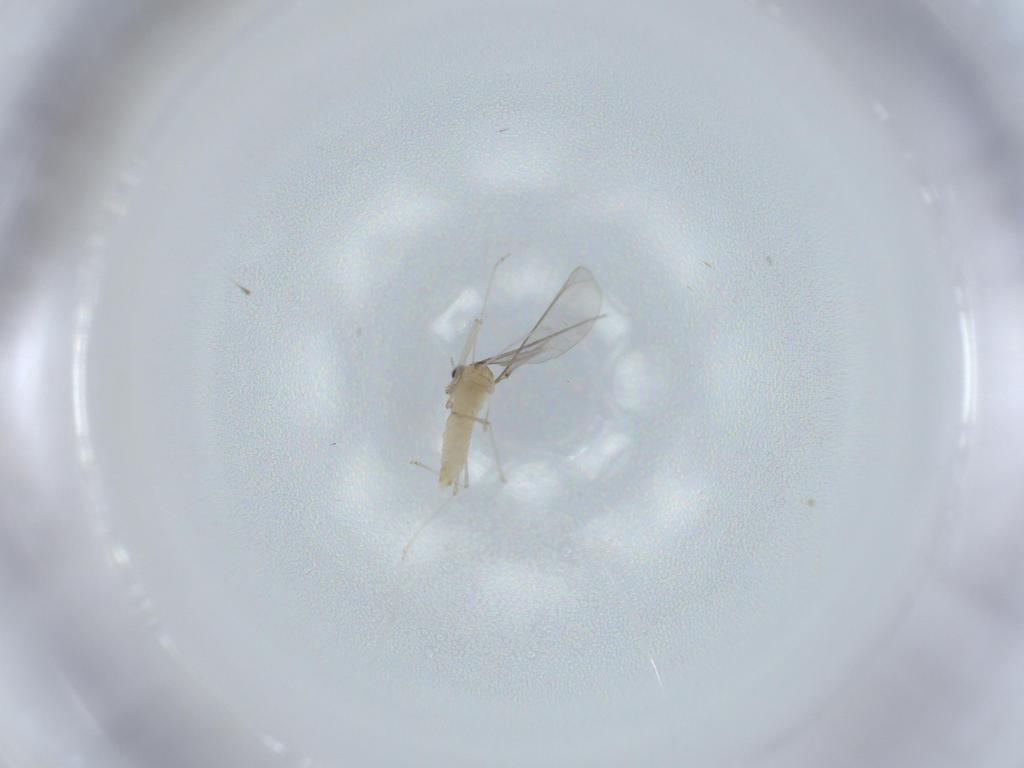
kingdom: Animalia
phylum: Arthropoda
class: Insecta
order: Diptera
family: Cecidomyiidae
